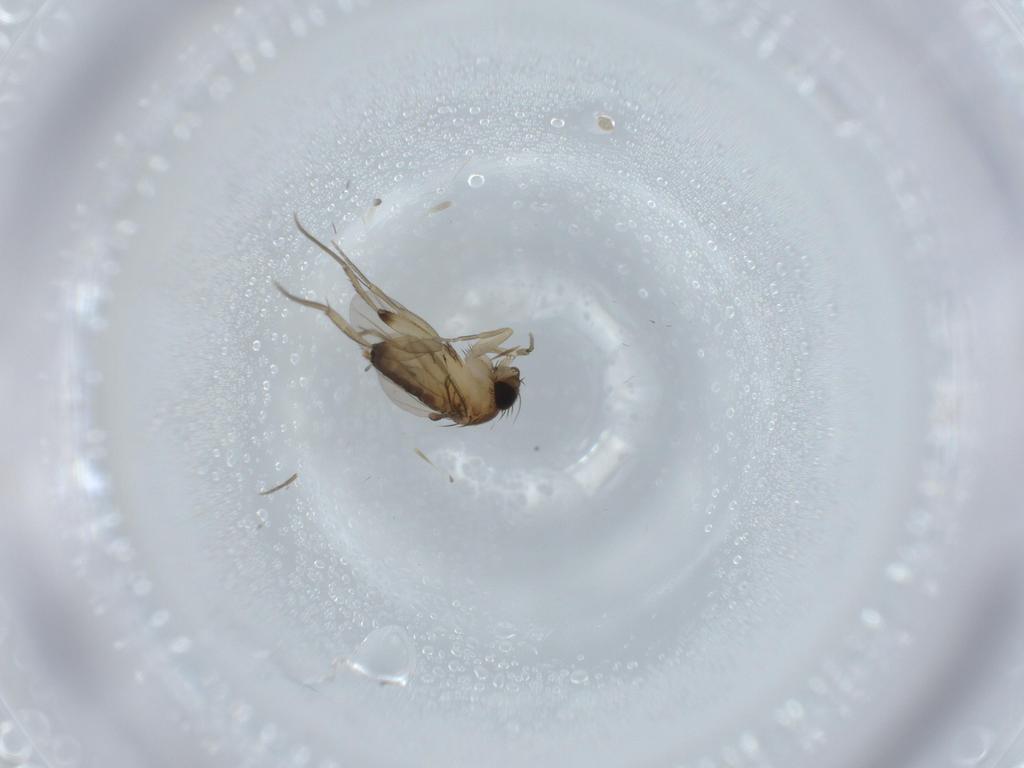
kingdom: Animalia
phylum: Arthropoda
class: Insecta
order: Diptera
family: Phoridae
